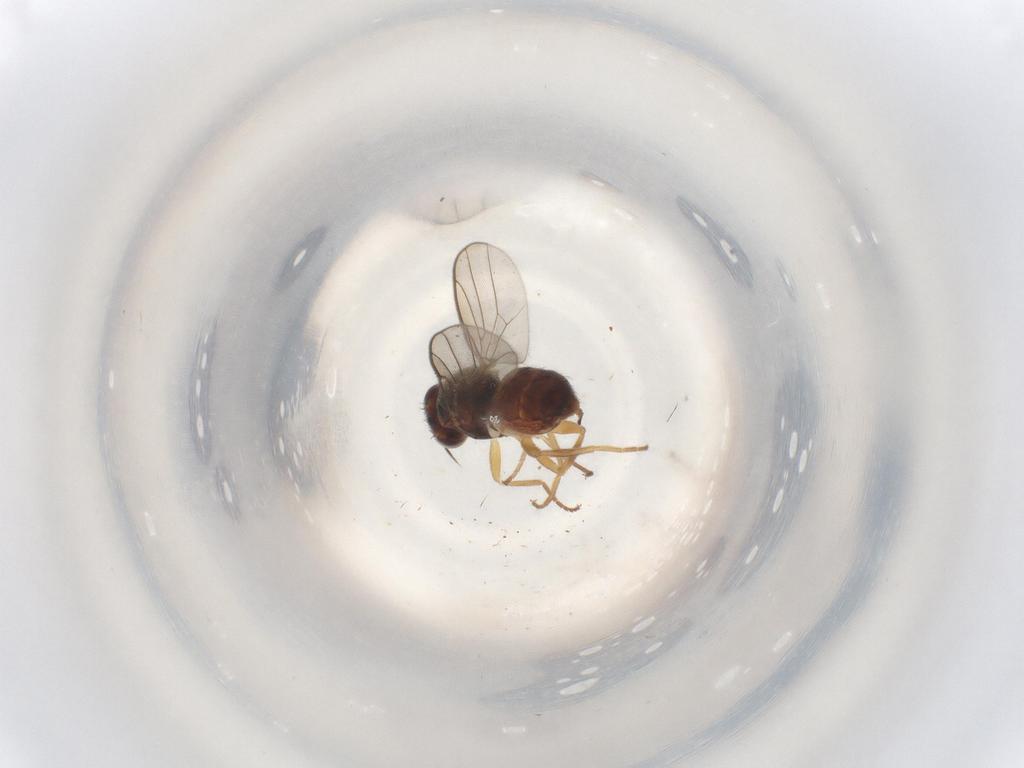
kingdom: Animalia
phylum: Arthropoda
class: Insecta
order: Diptera
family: Chloropidae
